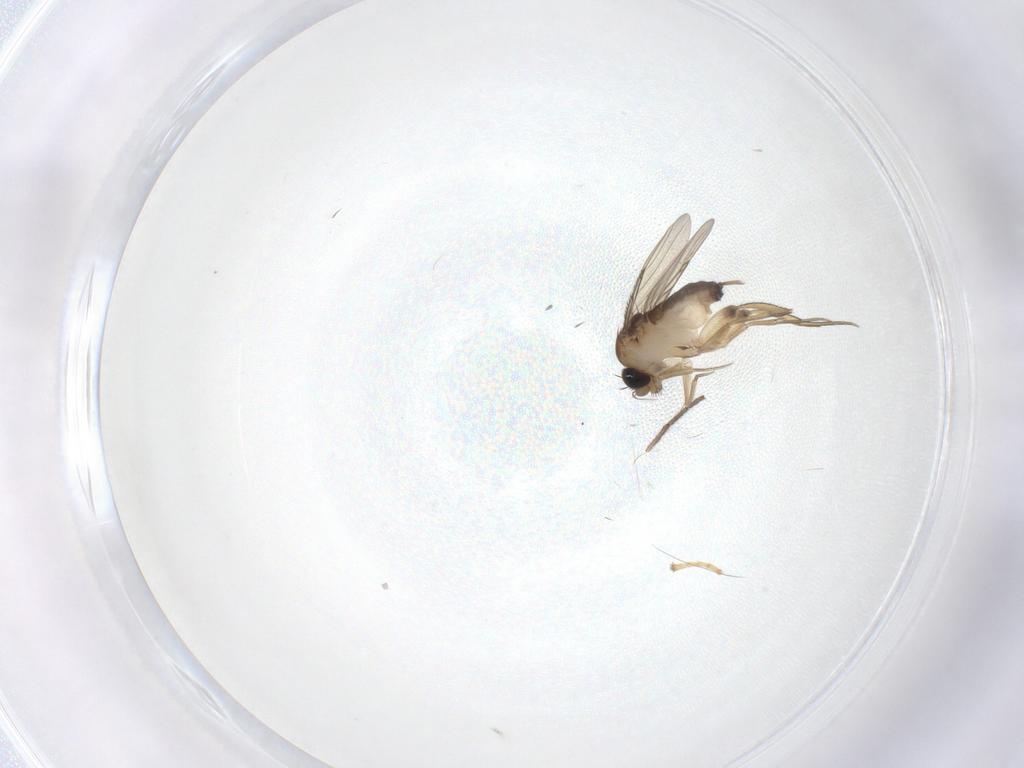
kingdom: Animalia
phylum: Arthropoda
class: Insecta
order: Diptera
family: Phoridae
